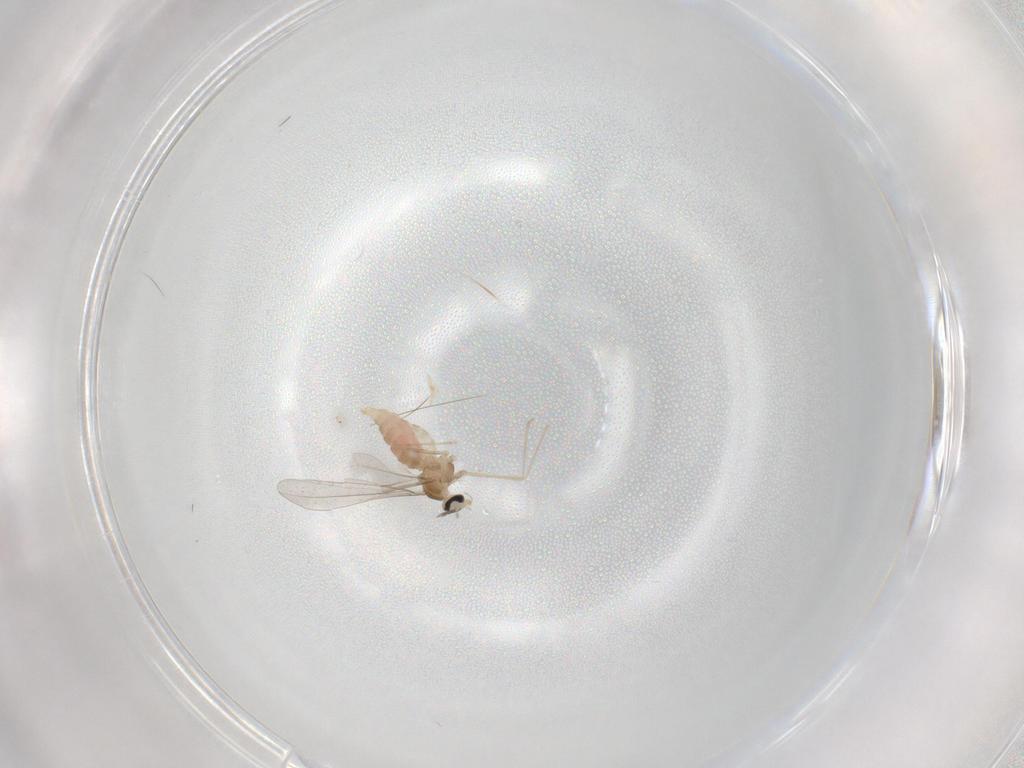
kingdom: Animalia
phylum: Arthropoda
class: Insecta
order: Diptera
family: Cecidomyiidae
